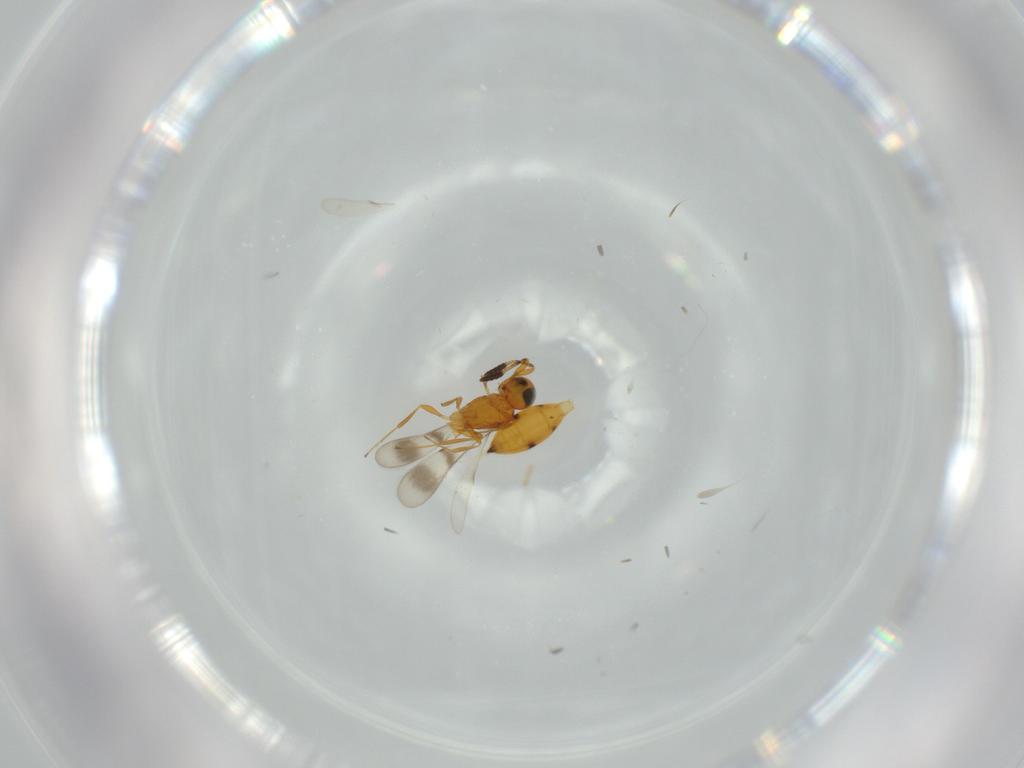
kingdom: Animalia
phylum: Arthropoda
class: Insecta
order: Hymenoptera
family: Scelionidae
